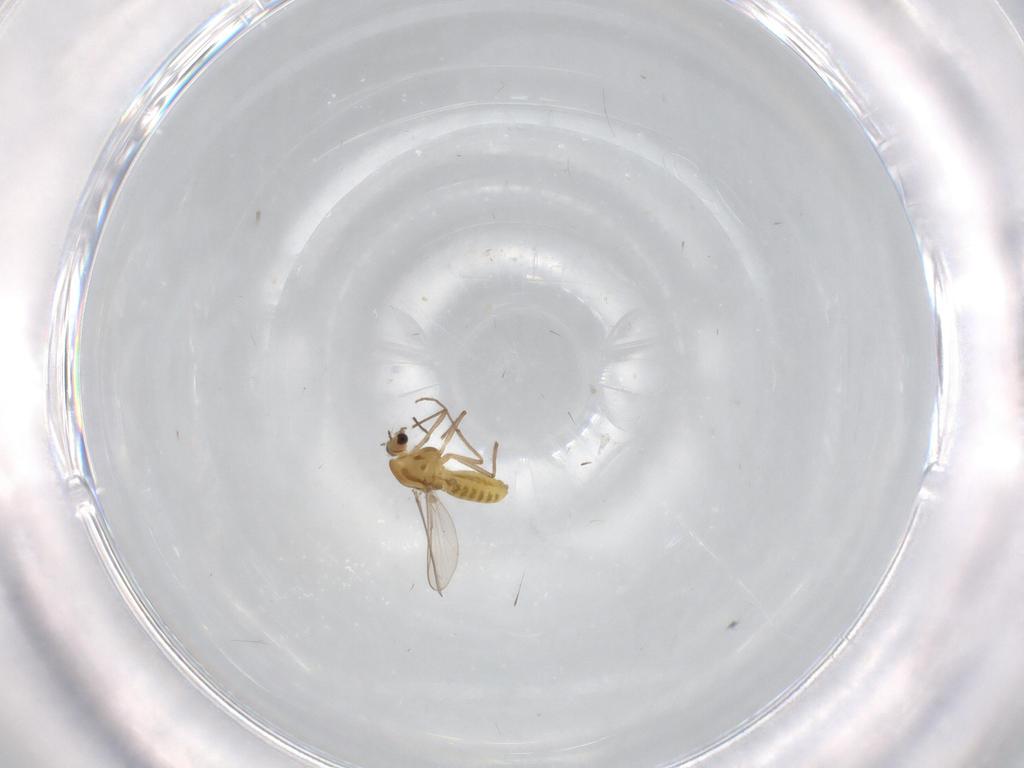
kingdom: Animalia
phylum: Arthropoda
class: Insecta
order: Diptera
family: Chironomidae
